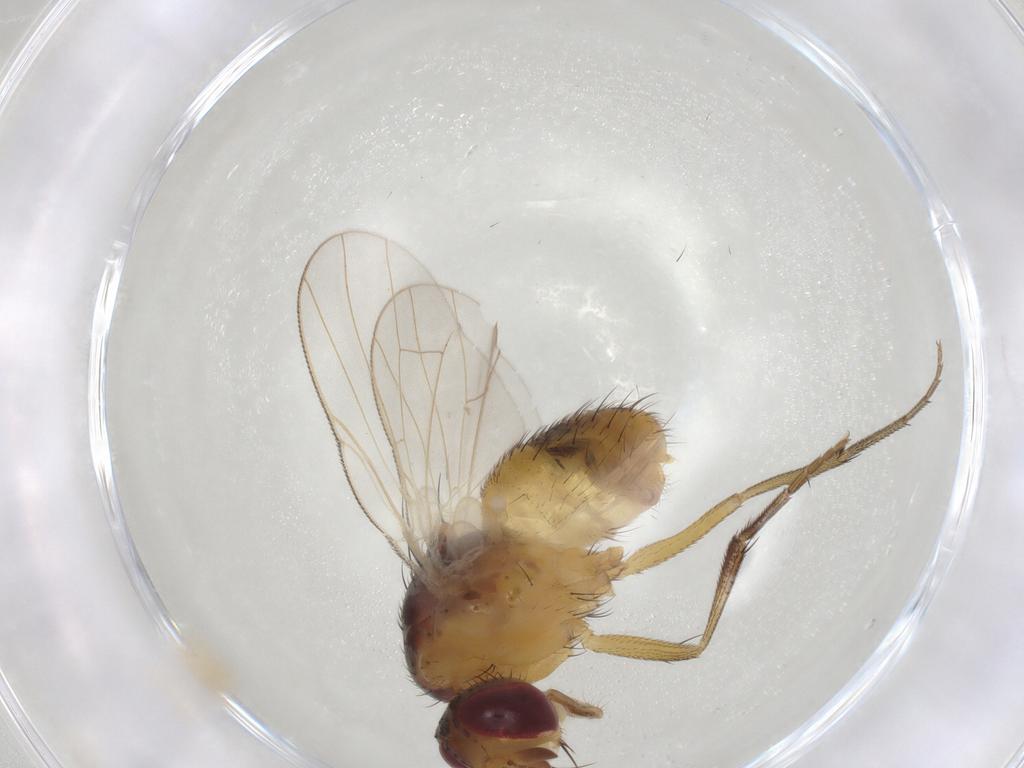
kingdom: Animalia
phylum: Arthropoda
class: Insecta
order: Diptera
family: Muscidae
